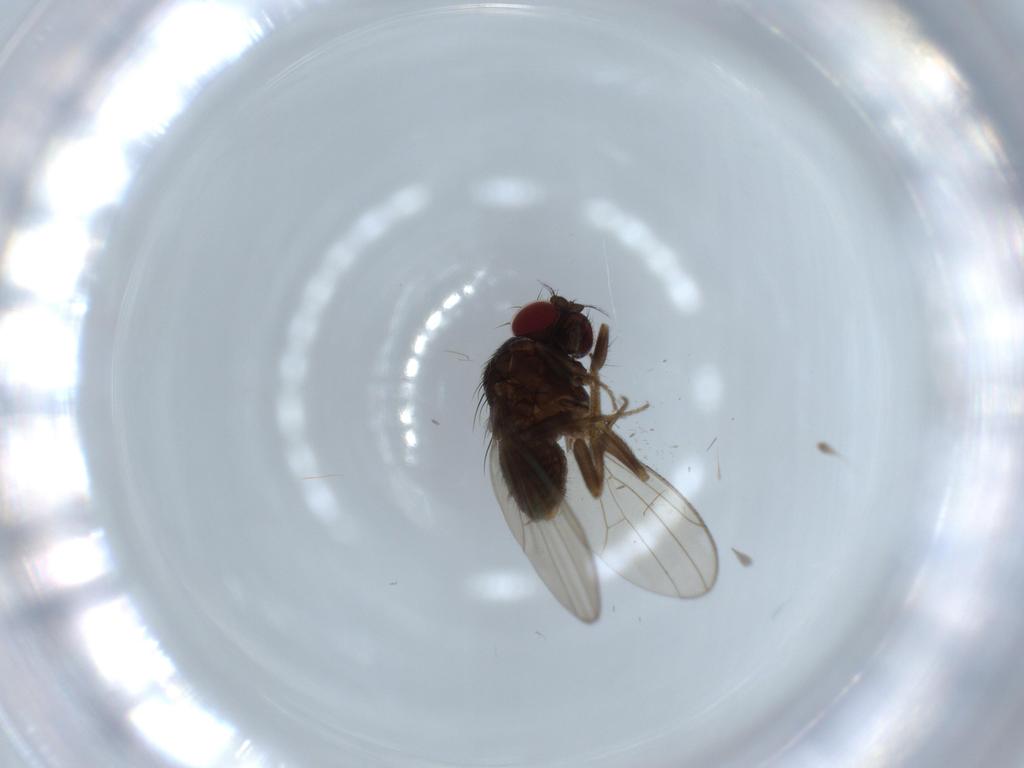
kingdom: Animalia
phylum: Arthropoda
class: Insecta
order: Diptera
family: Drosophilidae
